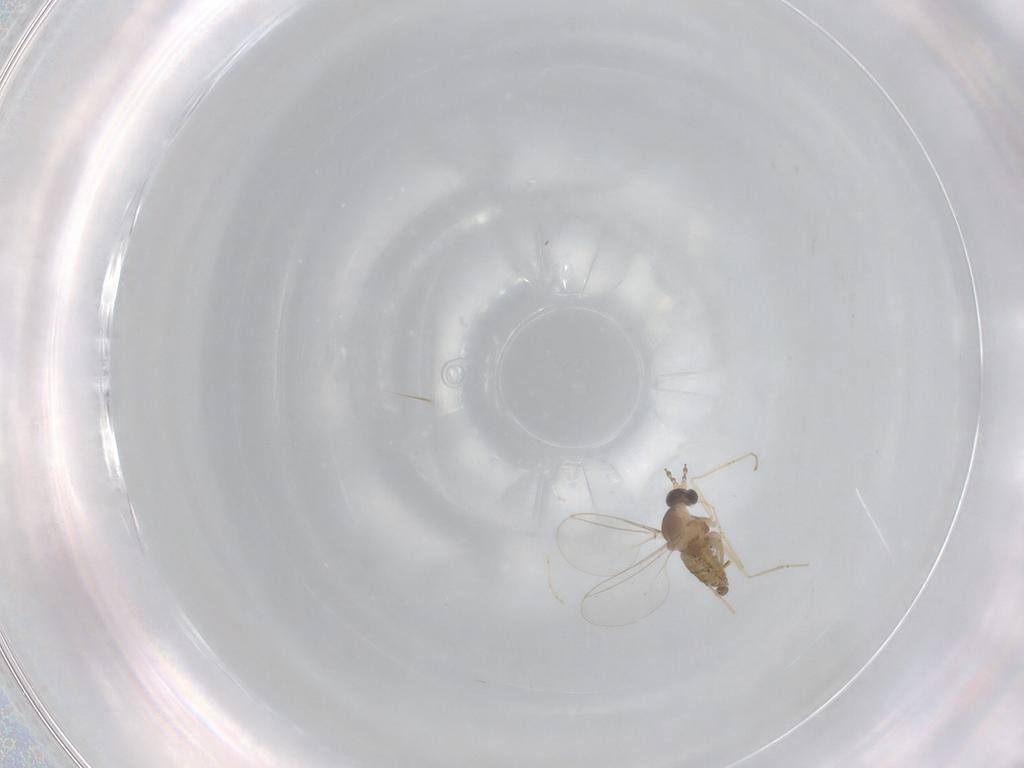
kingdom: Animalia
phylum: Arthropoda
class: Insecta
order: Diptera
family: Cecidomyiidae
